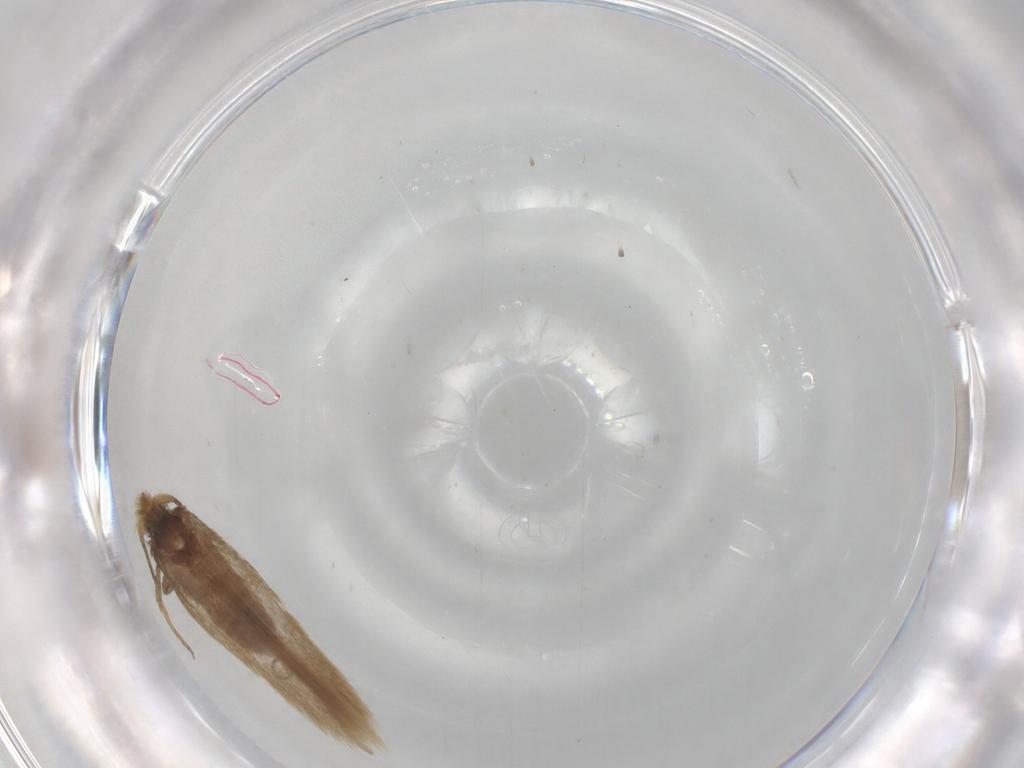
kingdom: Animalia
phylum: Arthropoda
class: Insecta
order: Lepidoptera
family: Nepticulidae
